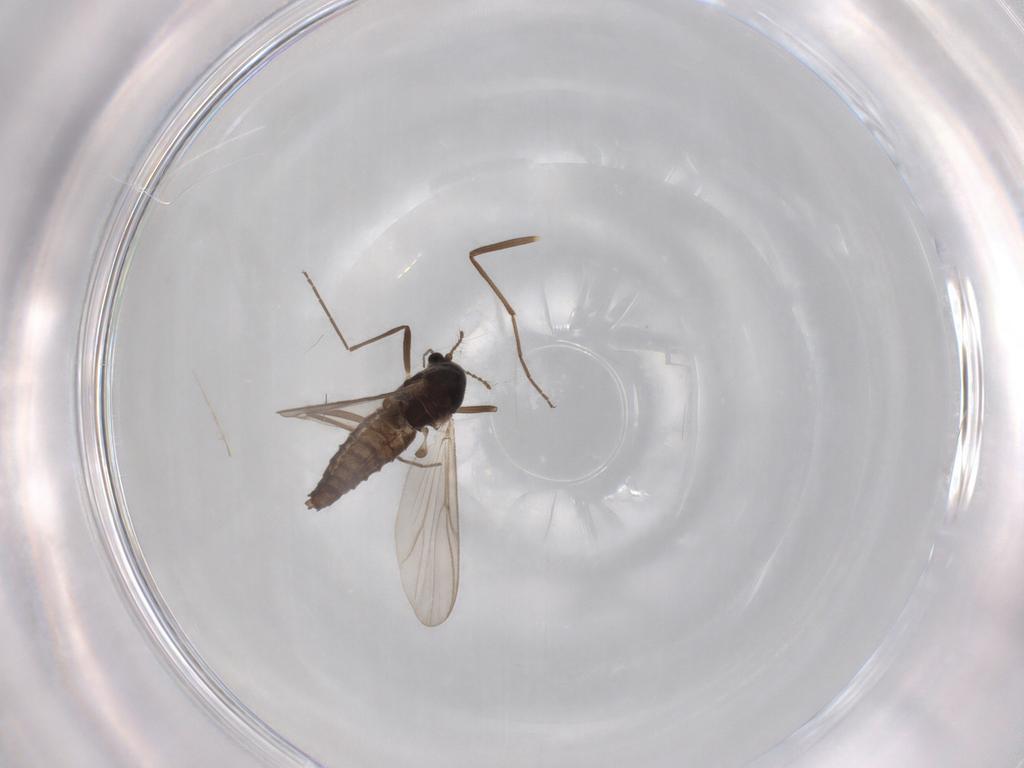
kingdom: Animalia
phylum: Arthropoda
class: Insecta
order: Diptera
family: Chironomidae
